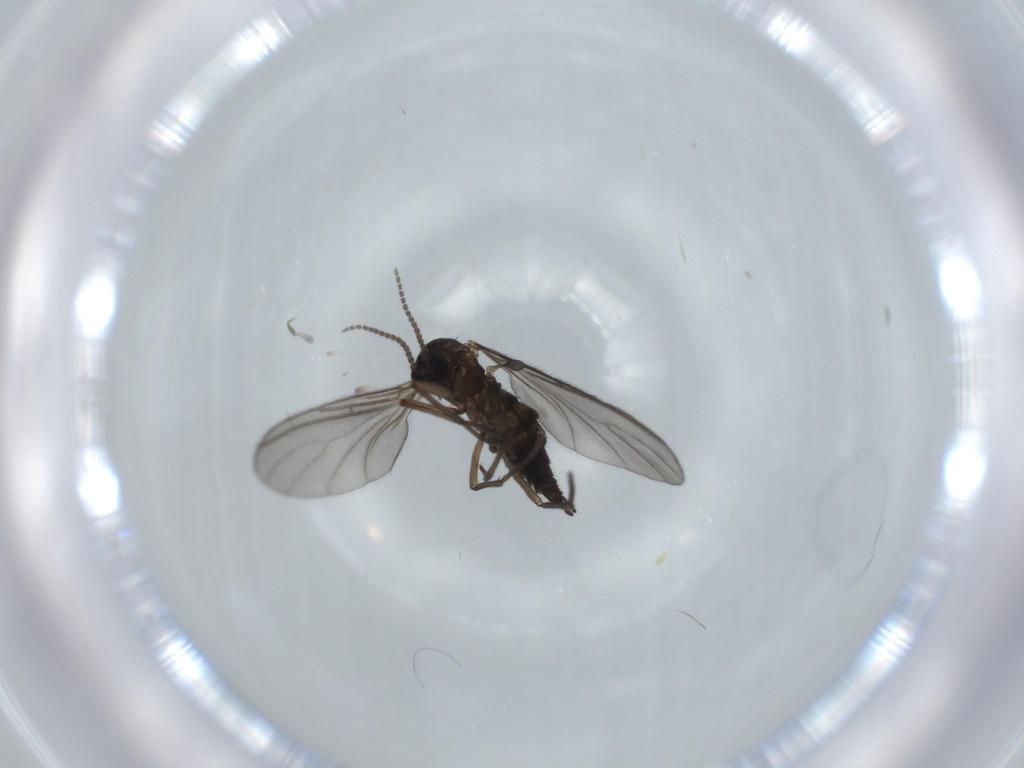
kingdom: Animalia
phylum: Arthropoda
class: Insecta
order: Diptera
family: Sciaridae
